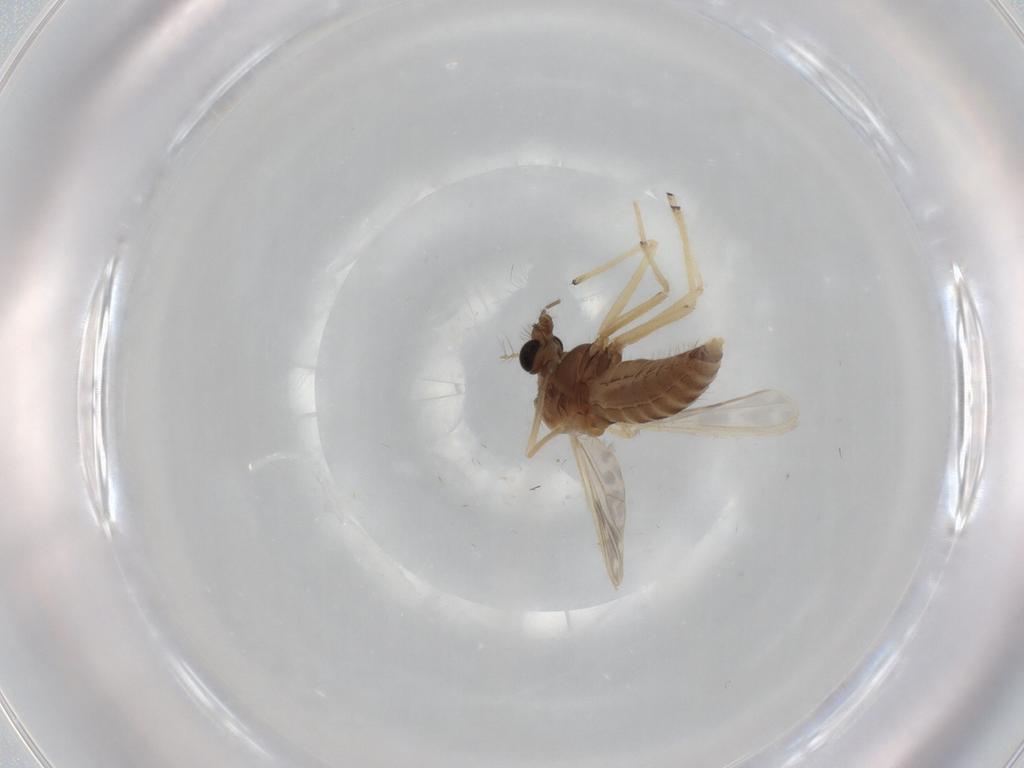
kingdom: Animalia
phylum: Arthropoda
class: Insecta
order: Diptera
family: Chironomidae
